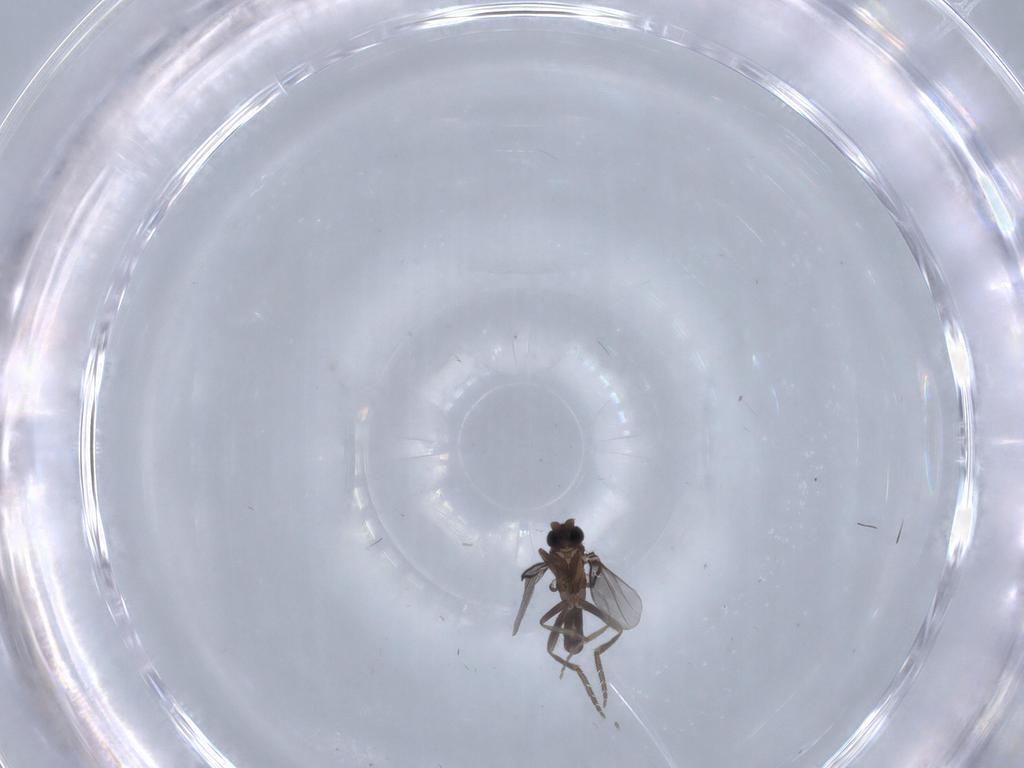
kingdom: Animalia
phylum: Arthropoda
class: Insecta
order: Diptera
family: Phoridae
